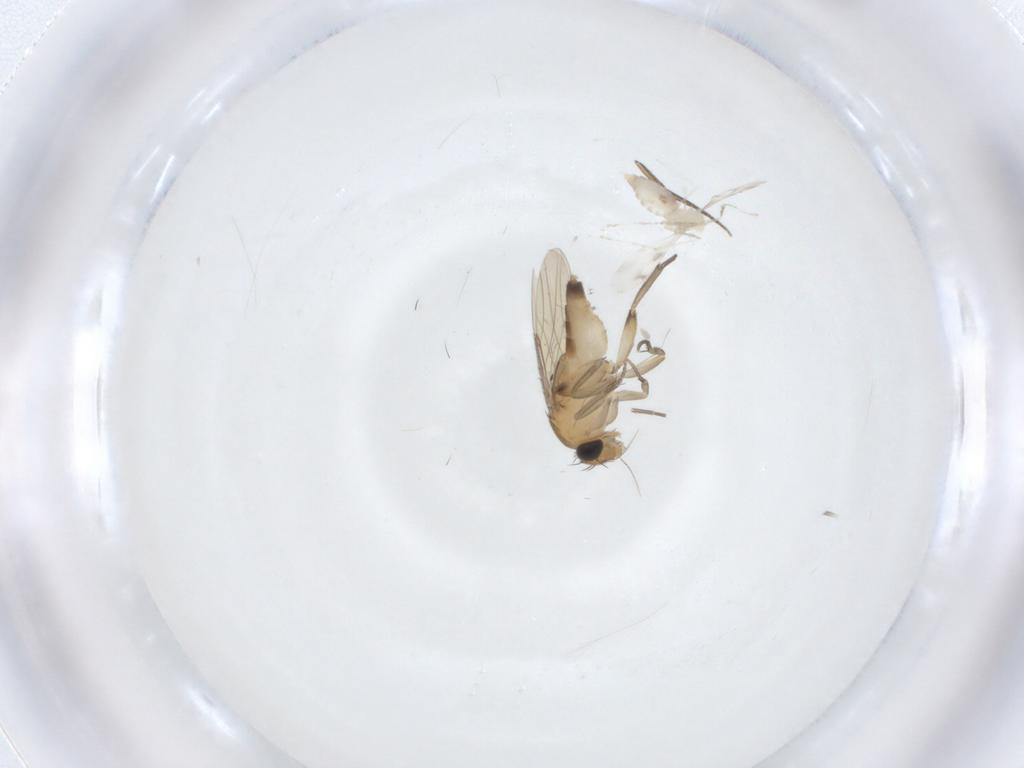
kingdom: Animalia
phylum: Arthropoda
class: Insecta
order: Diptera
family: Phoridae
